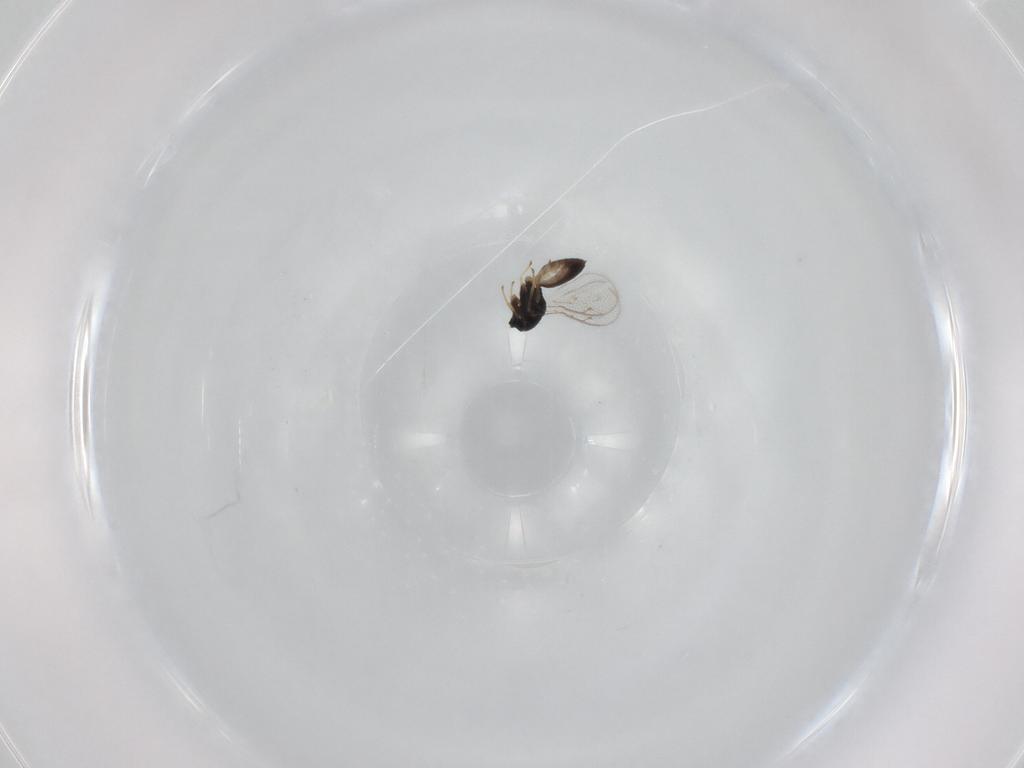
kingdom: Animalia
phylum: Arthropoda
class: Insecta
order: Hymenoptera
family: Pteromalidae
